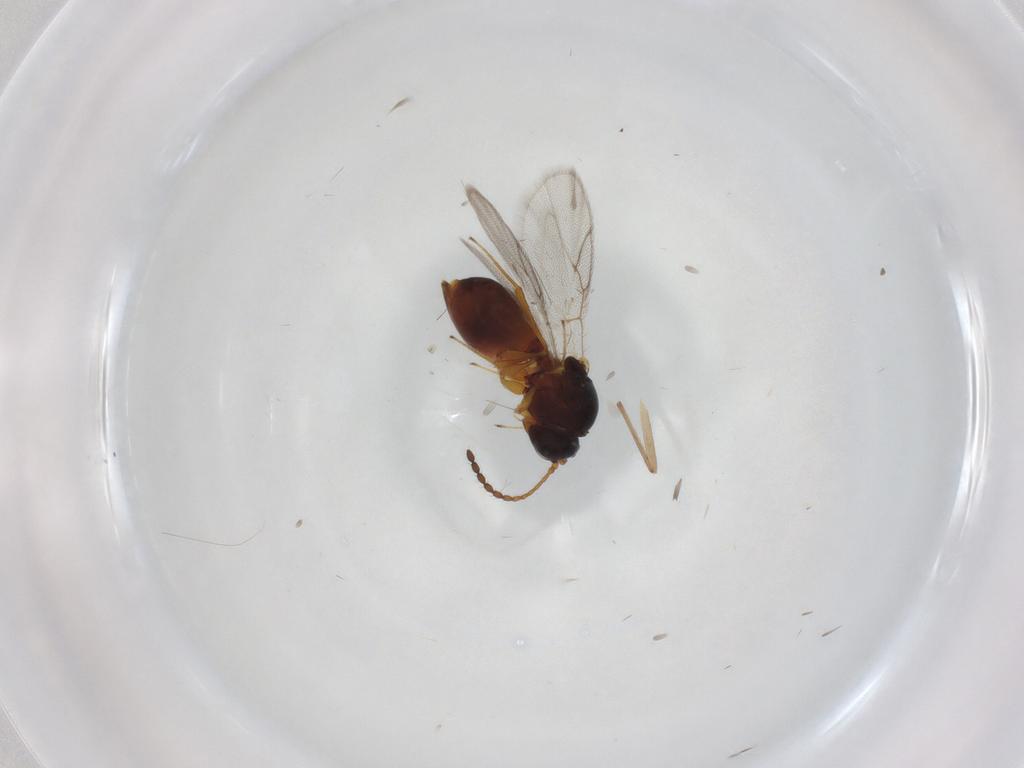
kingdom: Animalia
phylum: Arthropoda
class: Insecta
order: Hymenoptera
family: Figitidae
